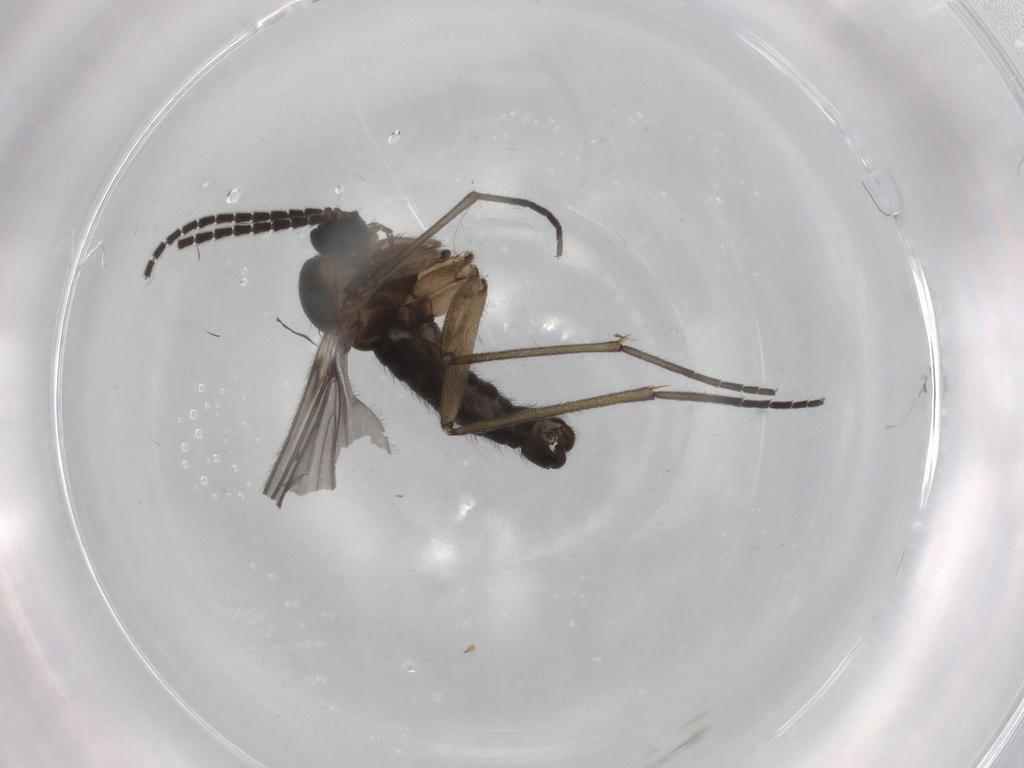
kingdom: Animalia
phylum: Arthropoda
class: Insecta
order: Diptera
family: Sciaridae
